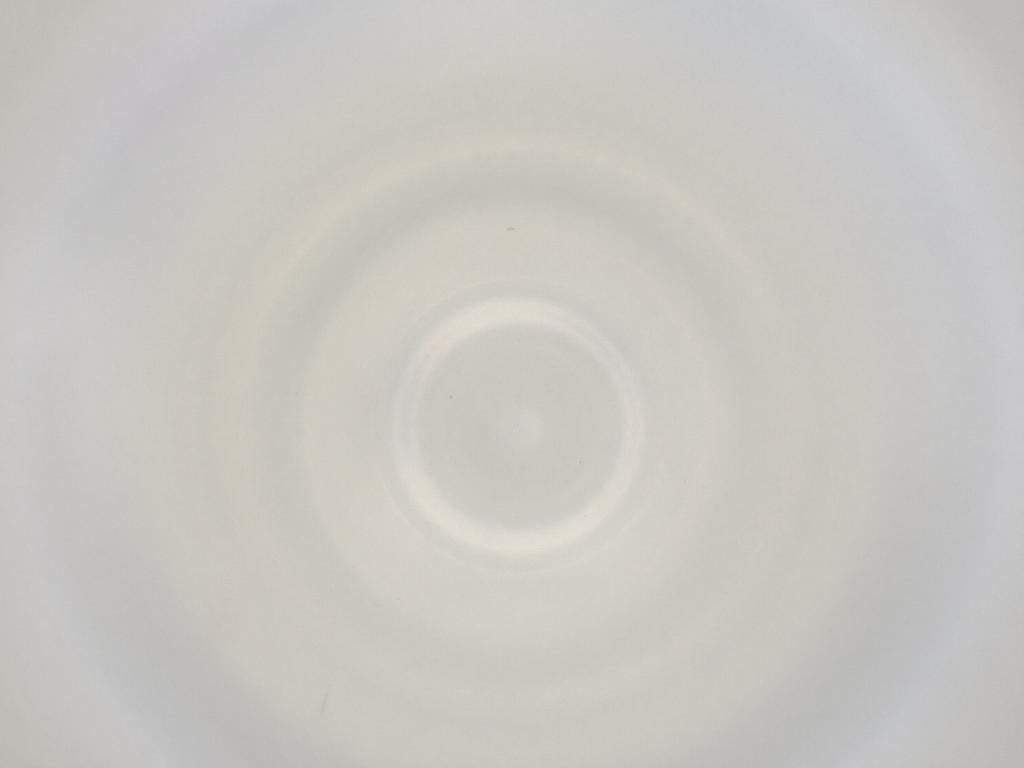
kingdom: Animalia
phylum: Arthropoda
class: Insecta
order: Diptera
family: Cecidomyiidae
